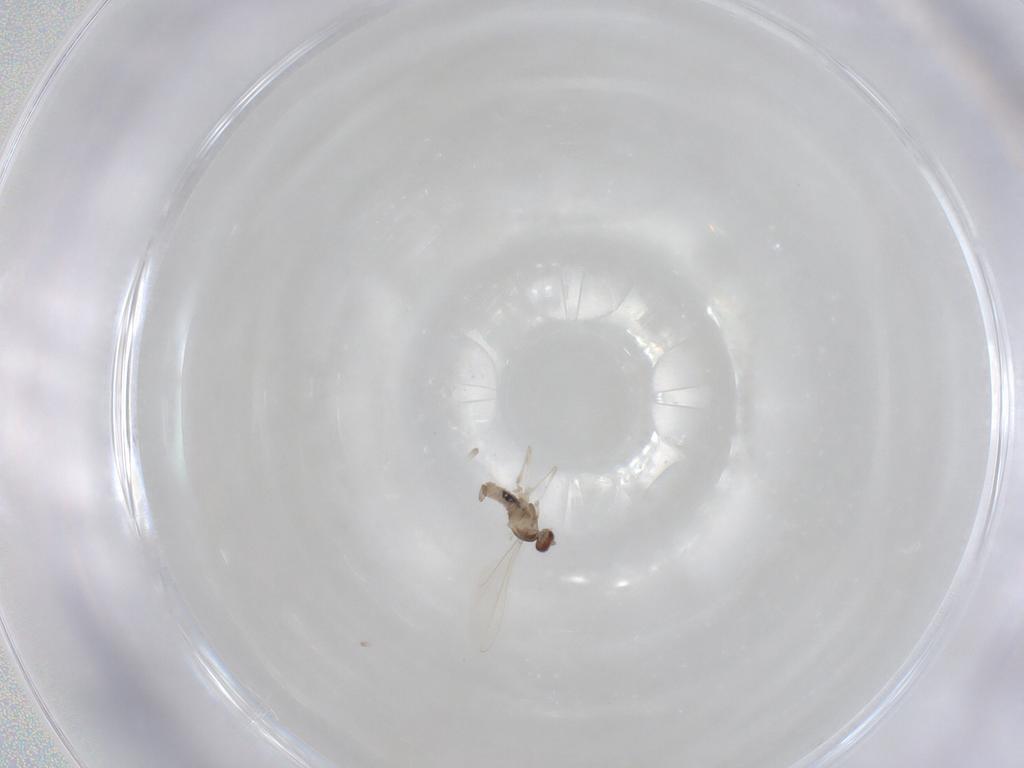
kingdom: Animalia
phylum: Arthropoda
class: Insecta
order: Diptera
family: Cecidomyiidae
